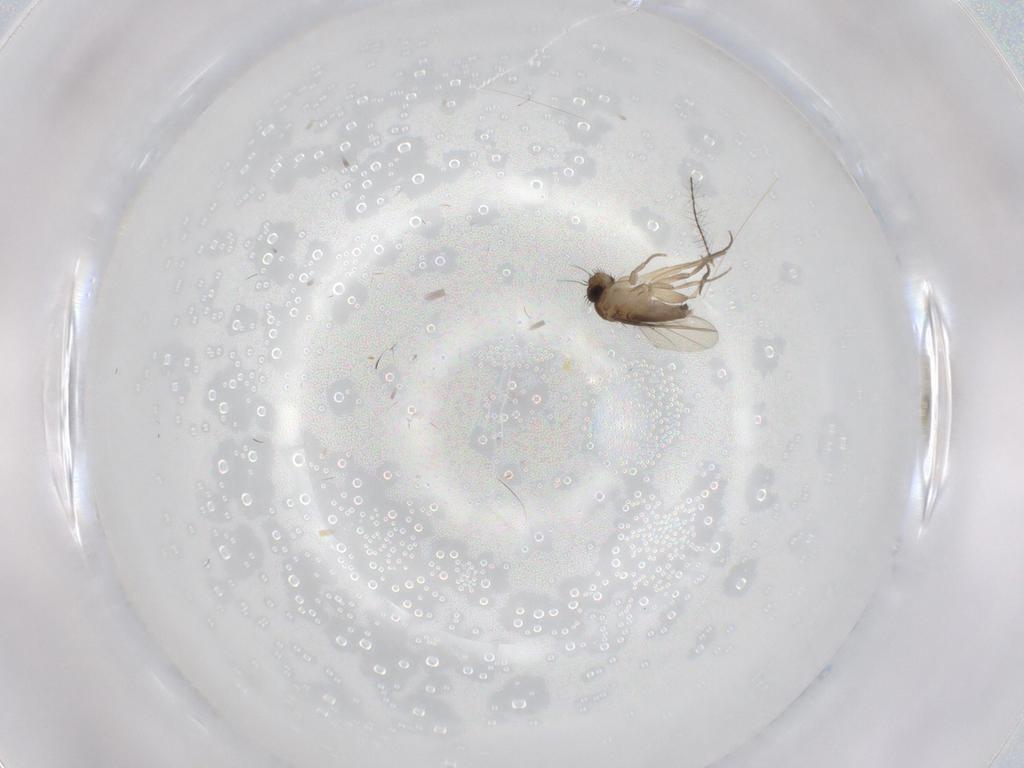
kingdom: Animalia
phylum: Arthropoda
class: Insecta
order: Diptera
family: Phoridae
